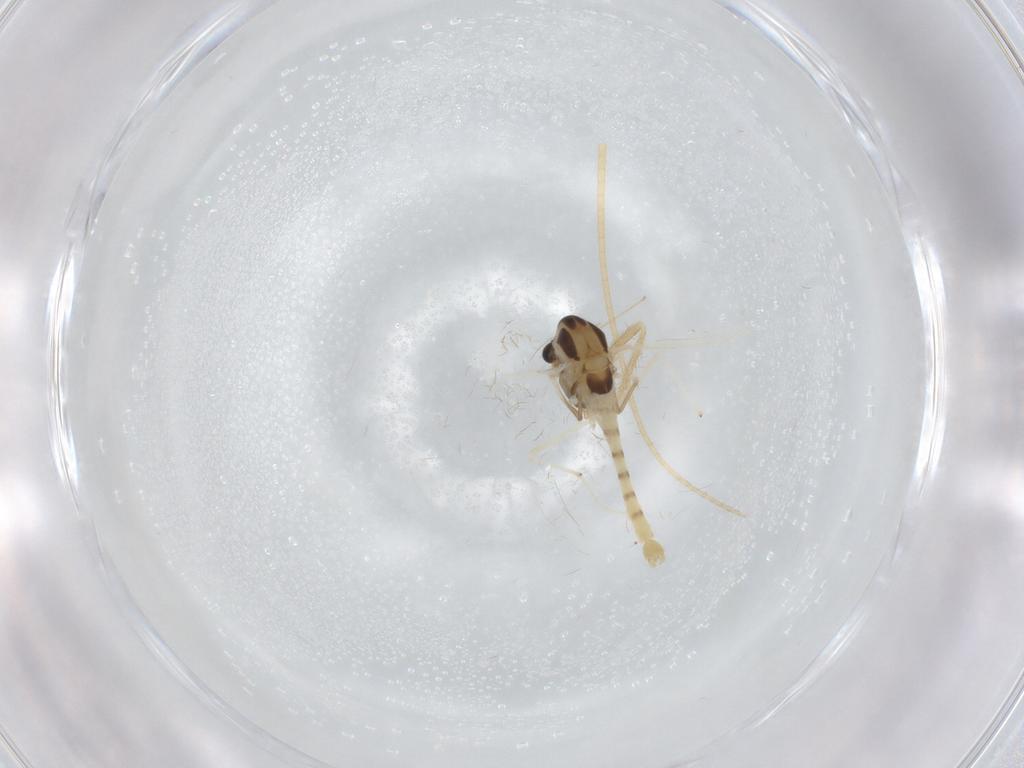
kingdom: Animalia
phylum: Arthropoda
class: Insecta
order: Diptera
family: Chironomidae
